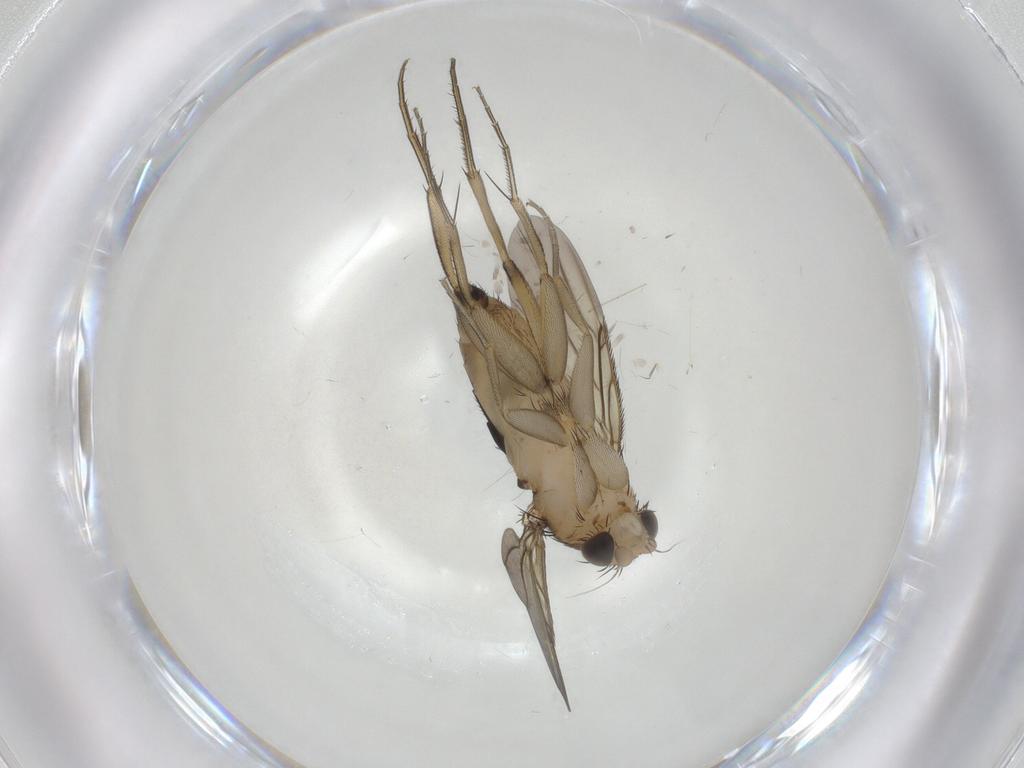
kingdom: Animalia
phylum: Arthropoda
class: Insecta
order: Diptera
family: Phoridae
